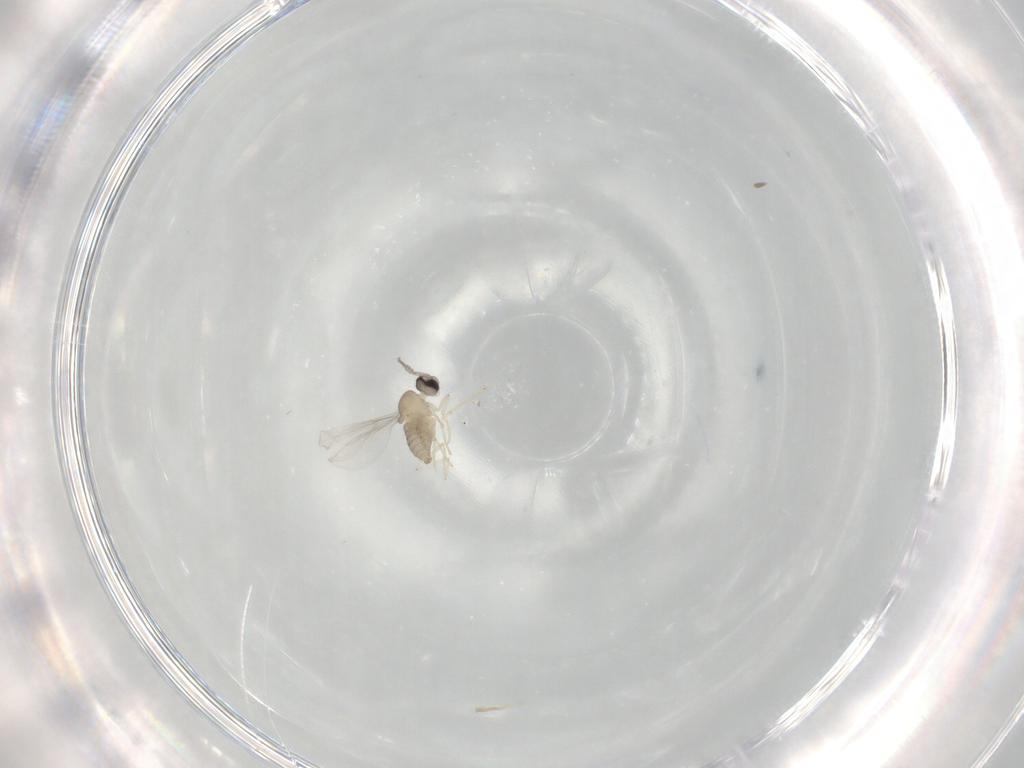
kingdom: Animalia
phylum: Arthropoda
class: Insecta
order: Diptera
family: Cecidomyiidae
